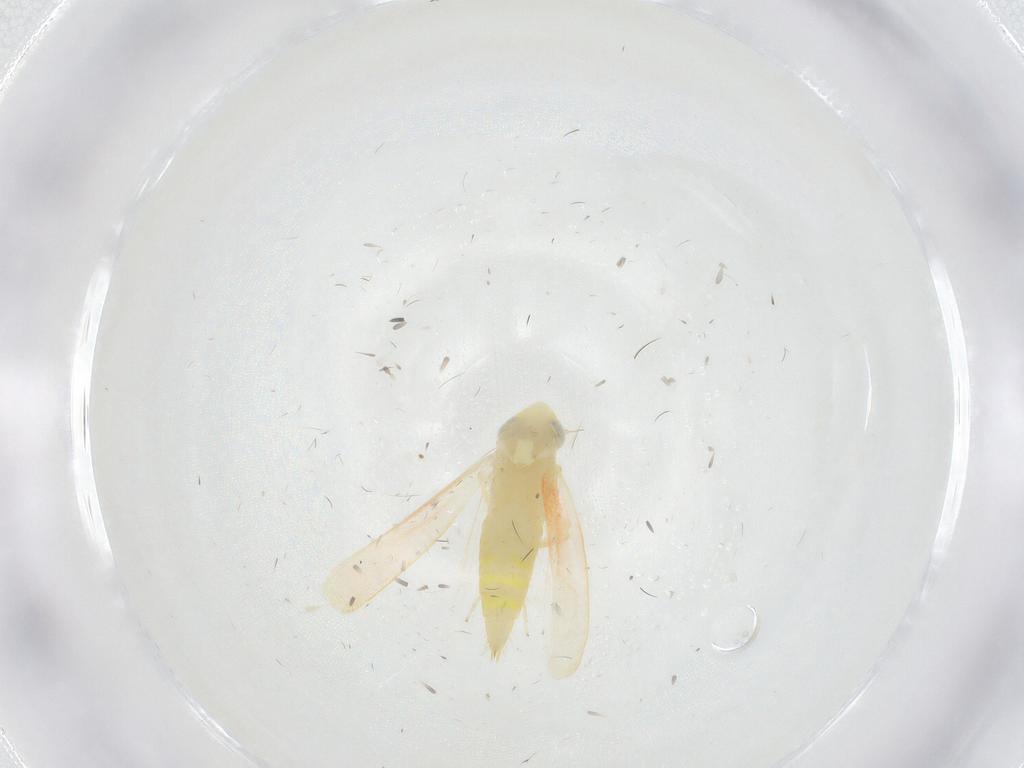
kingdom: Animalia
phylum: Arthropoda
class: Insecta
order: Hemiptera
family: Cicadellidae
